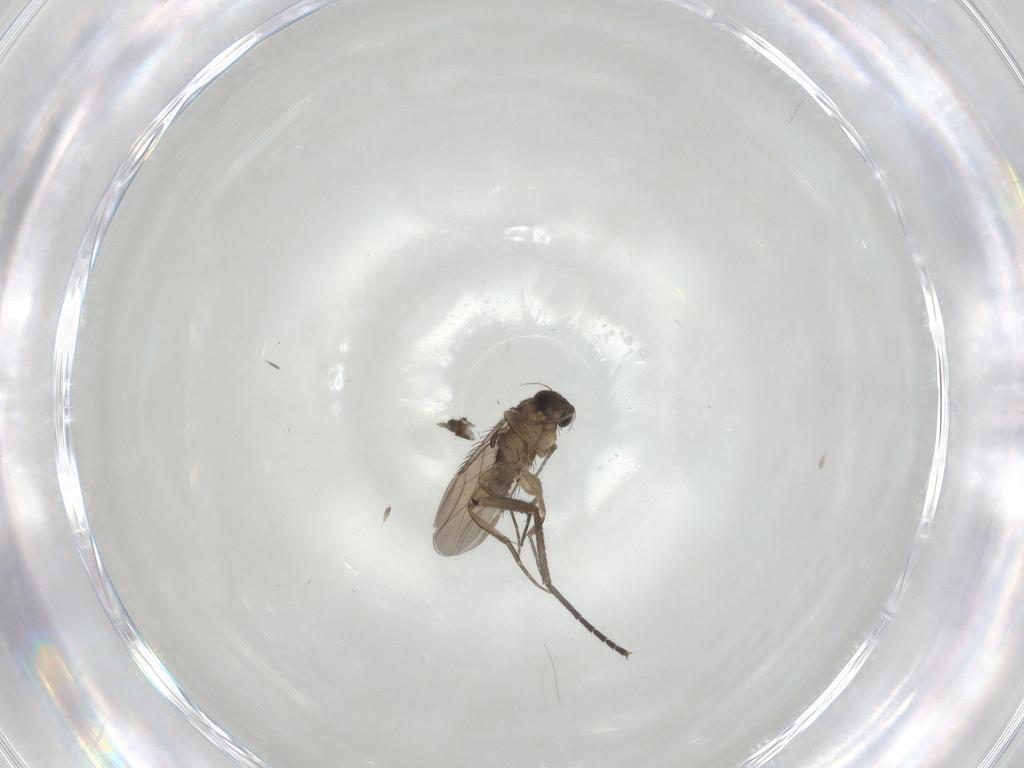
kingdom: Animalia
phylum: Arthropoda
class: Insecta
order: Diptera
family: Phoridae
